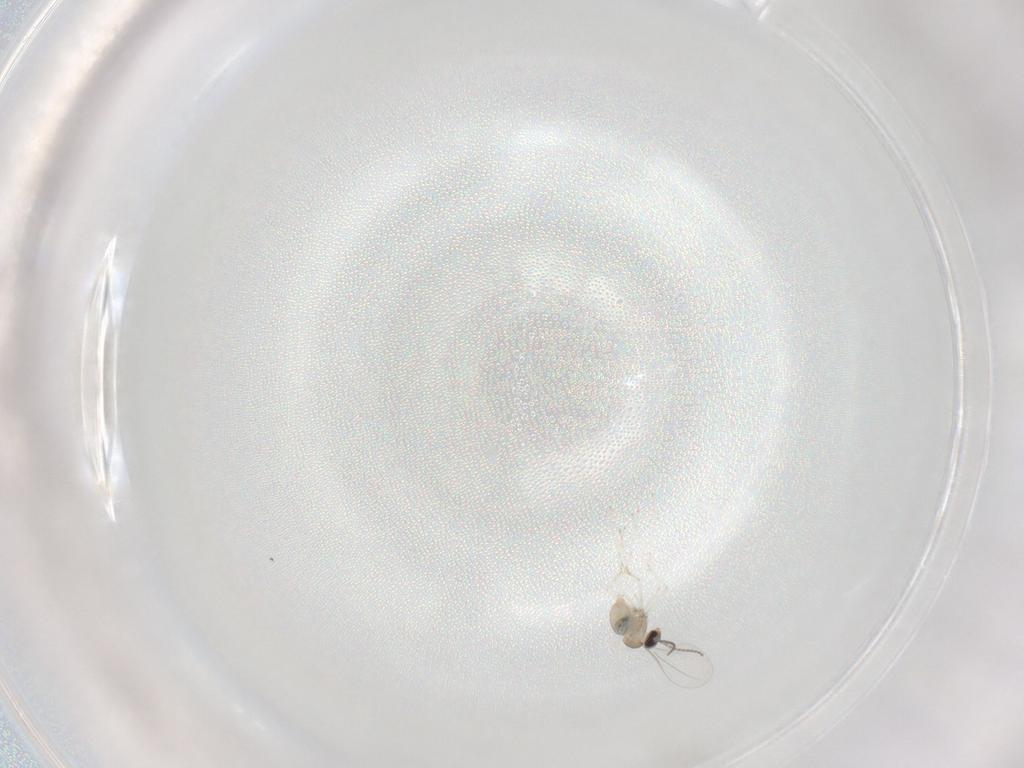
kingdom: Animalia
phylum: Arthropoda
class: Insecta
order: Diptera
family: Cecidomyiidae
